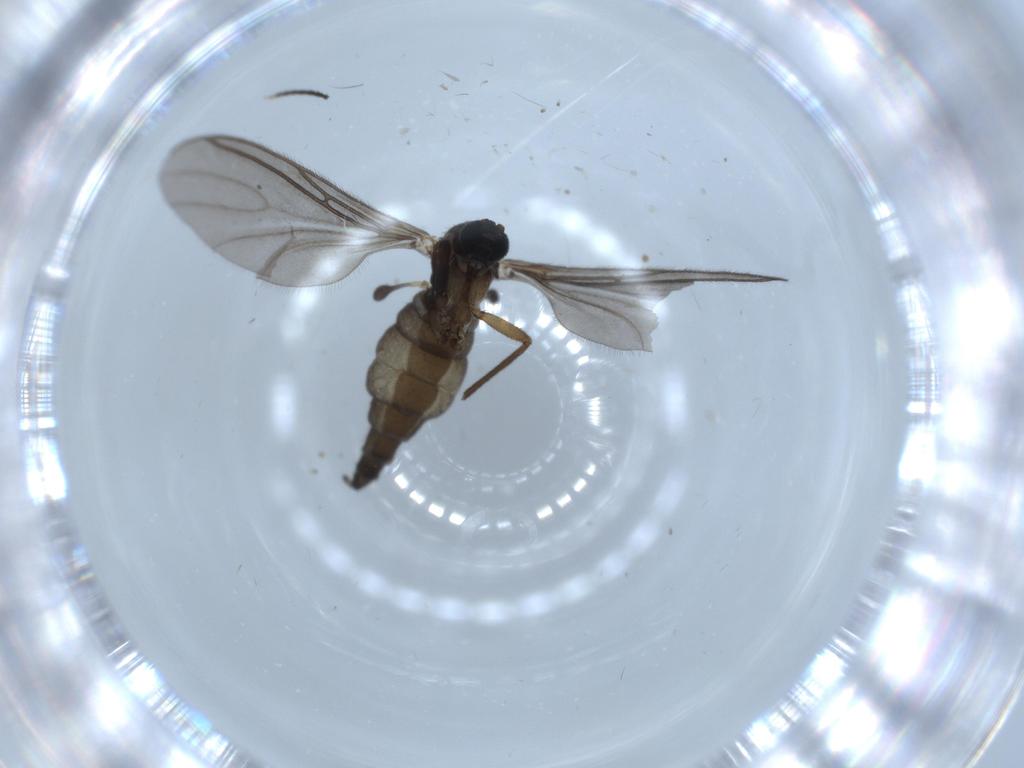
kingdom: Animalia
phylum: Arthropoda
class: Insecta
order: Diptera
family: Sciaridae
